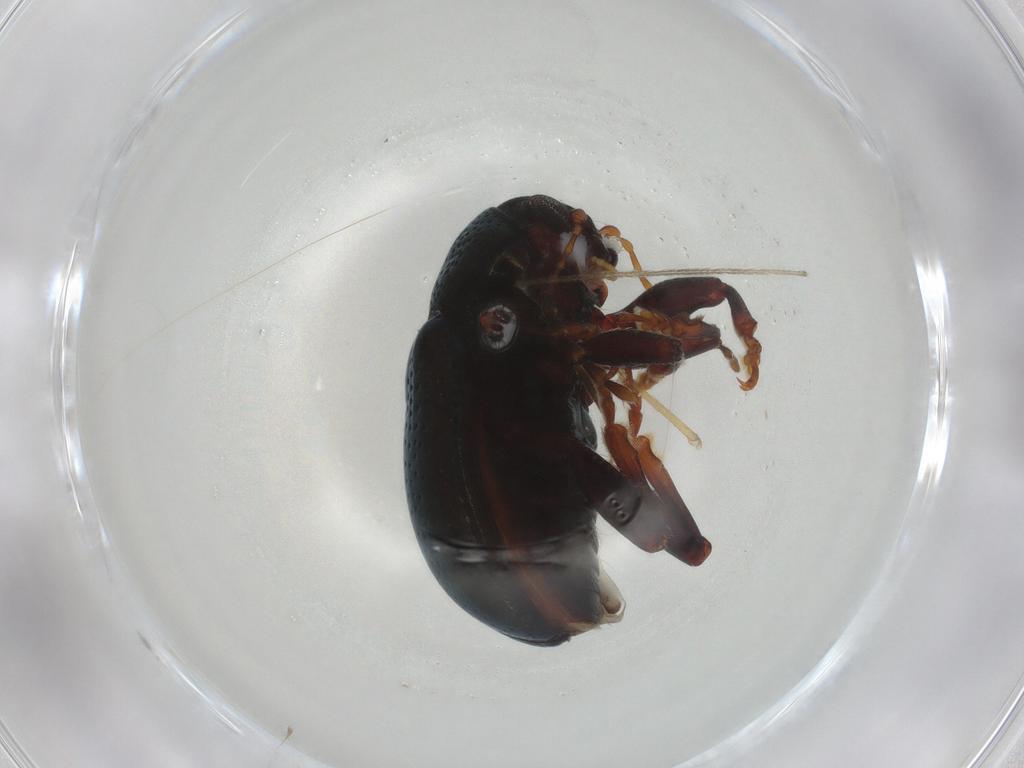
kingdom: Animalia
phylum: Arthropoda
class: Insecta
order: Coleoptera
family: Chrysomelidae
